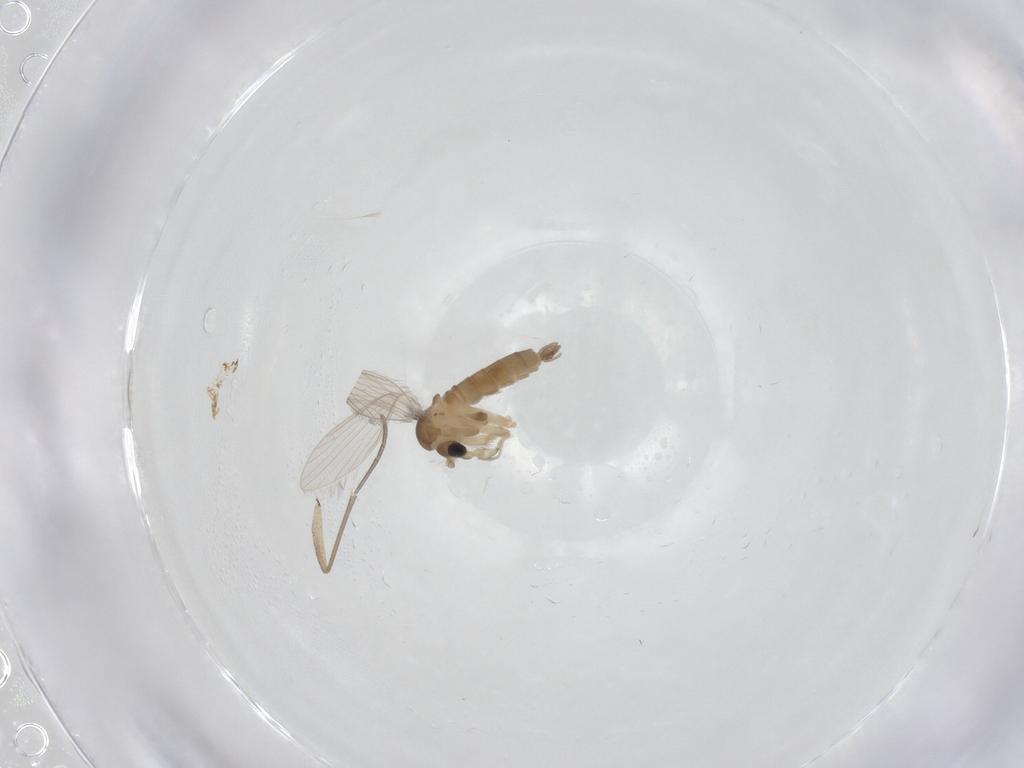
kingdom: Animalia
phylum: Arthropoda
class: Insecta
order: Diptera
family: Sciaridae
